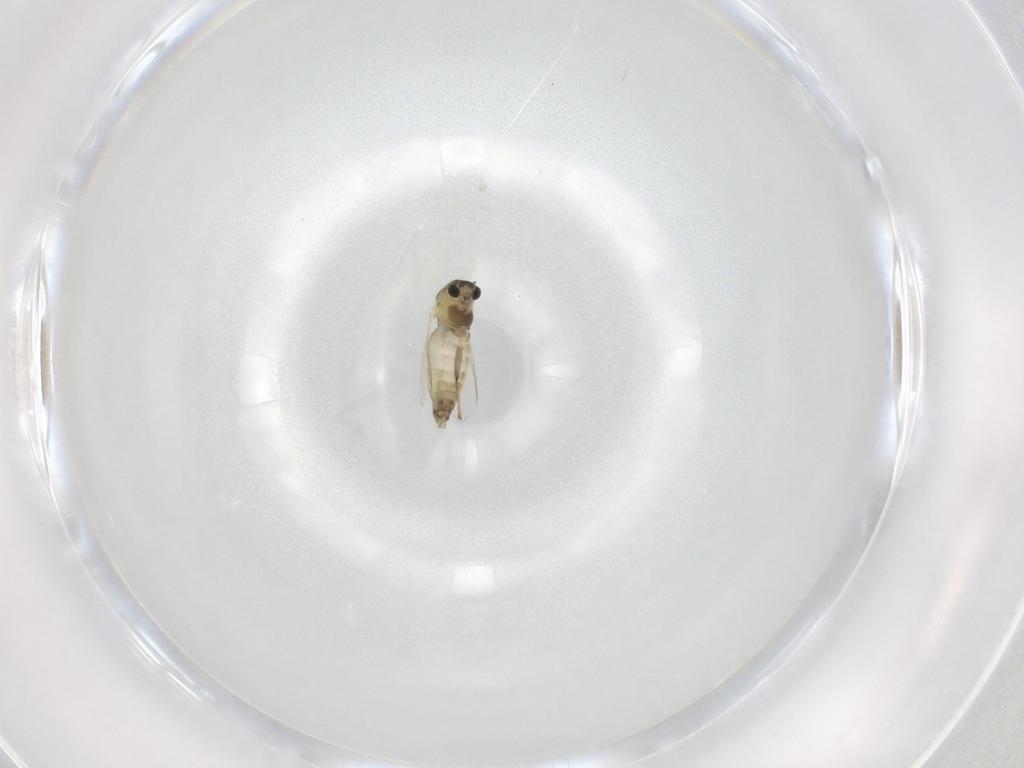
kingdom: Animalia
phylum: Arthropoda
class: Insecta
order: Diptera
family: Chironomidae
